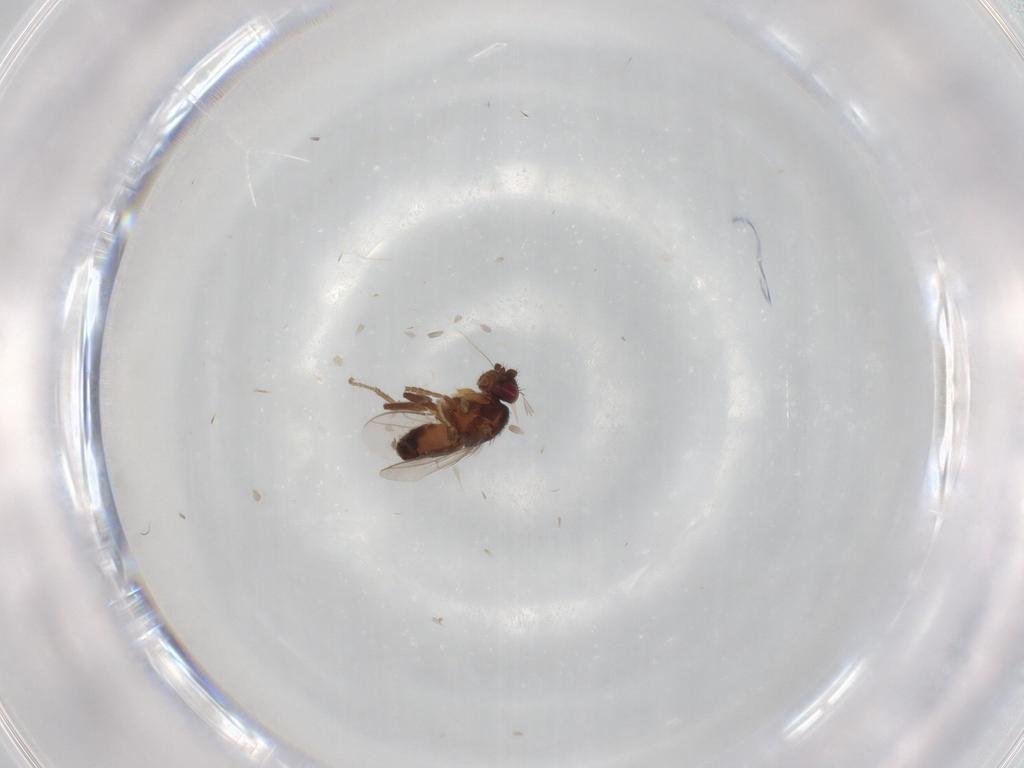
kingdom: Animalia
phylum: Arthropoda
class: Insecta
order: Diptera
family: Sphaeroceridae
